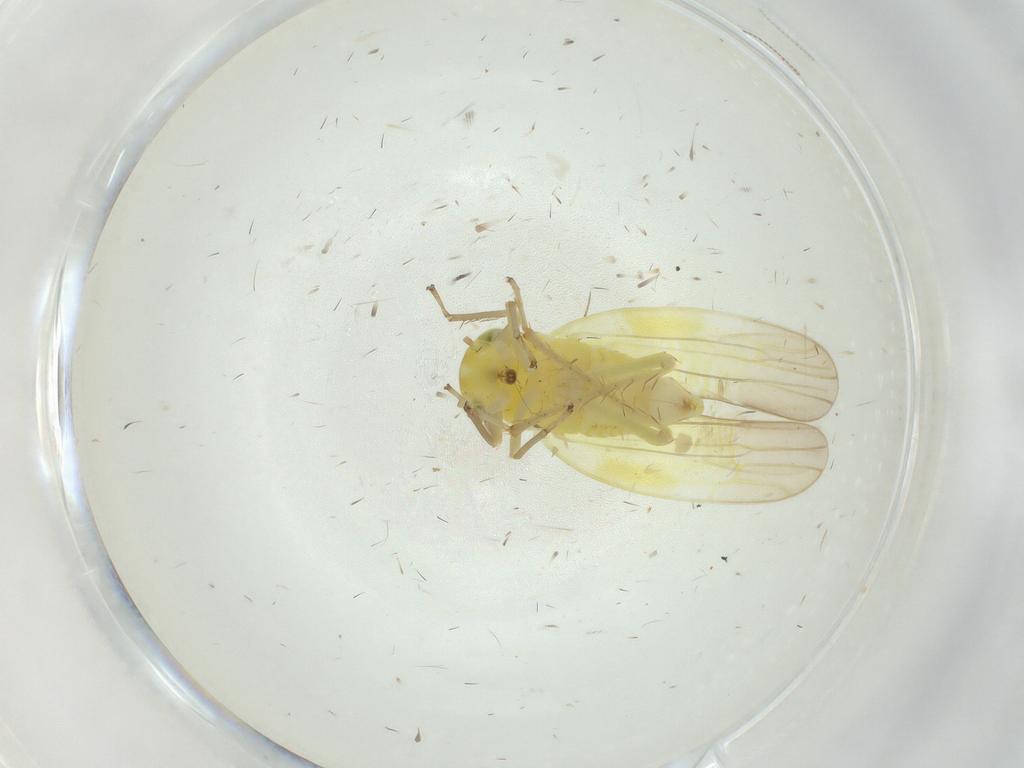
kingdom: Animalia
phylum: Arthropoda
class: Insecta
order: Hemiptera
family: Cicadellidae
